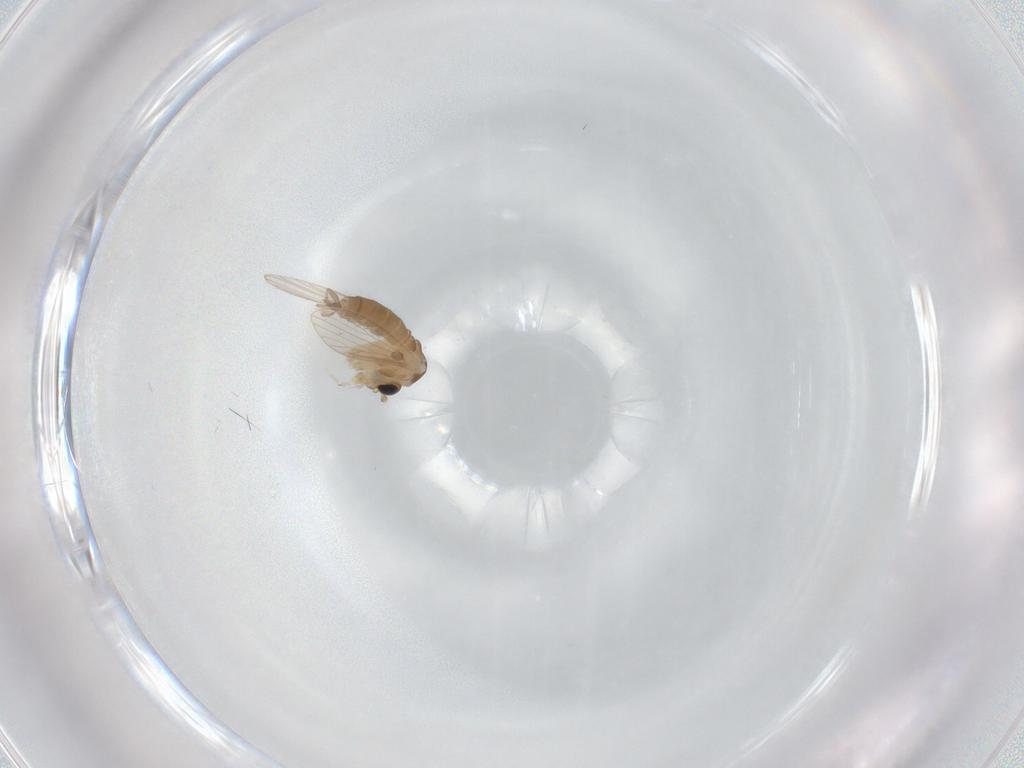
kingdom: Animalia
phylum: Arthropoda
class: Insecta
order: Diptera
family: Psychodidae
